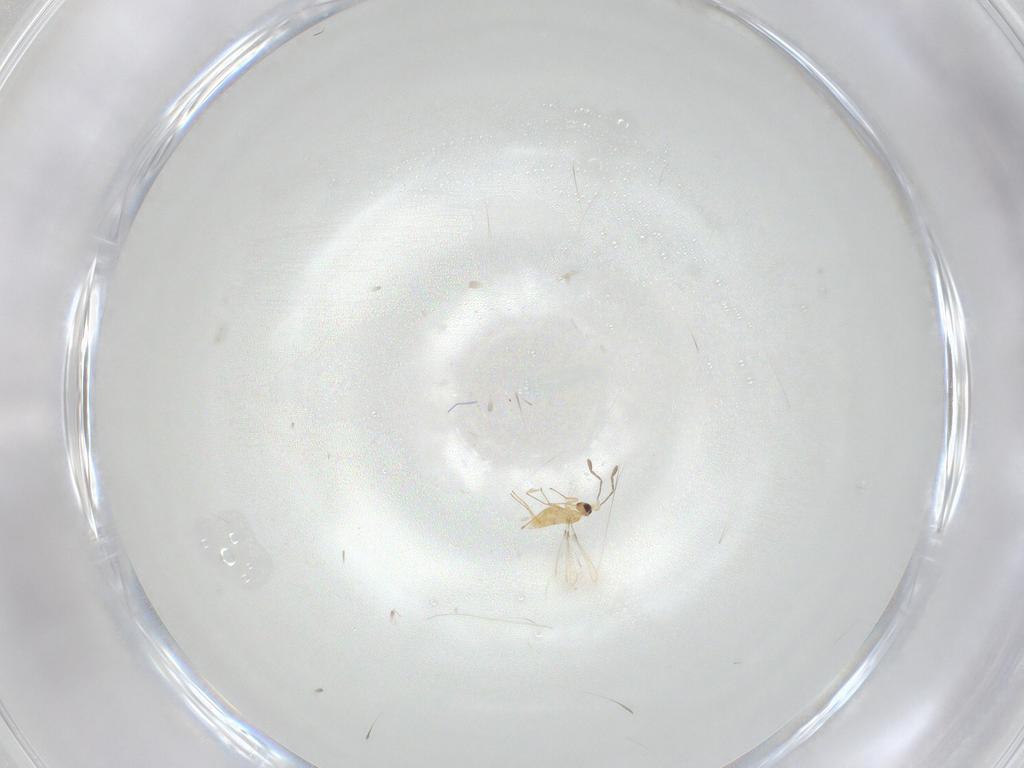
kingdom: Animalia
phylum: Arthropoda
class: Insecta
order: Hymenoptera
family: Mymaridae
